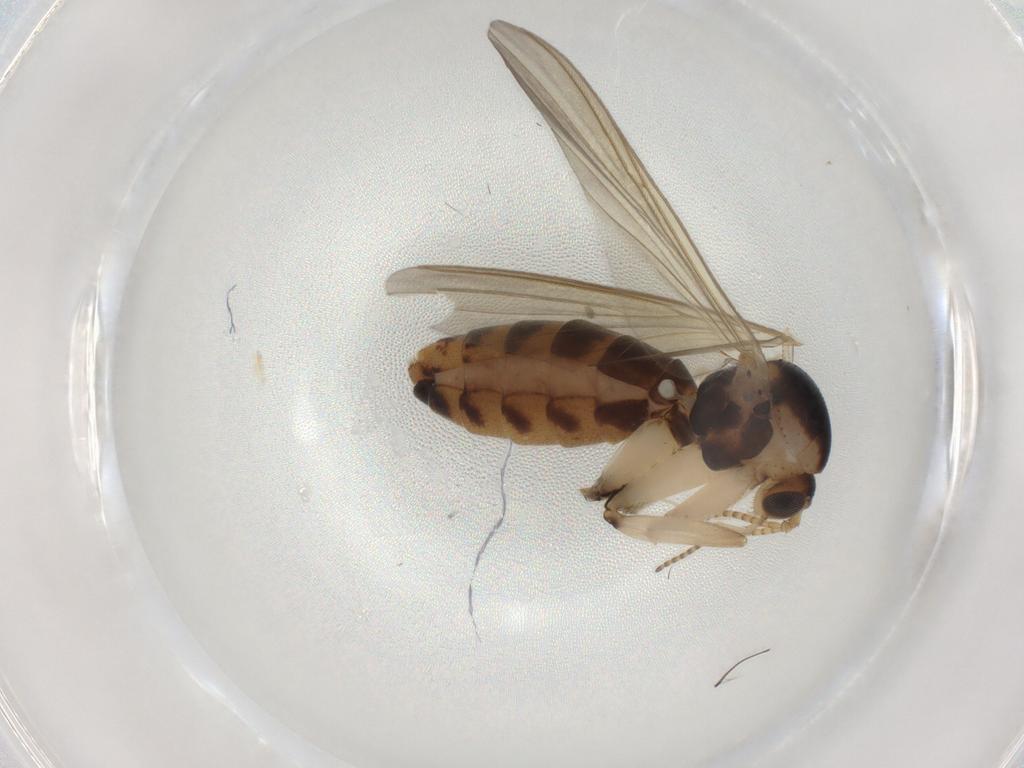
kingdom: Animalia
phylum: Arthropoda
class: Insecta
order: Diptera
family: Mycetophilidae
